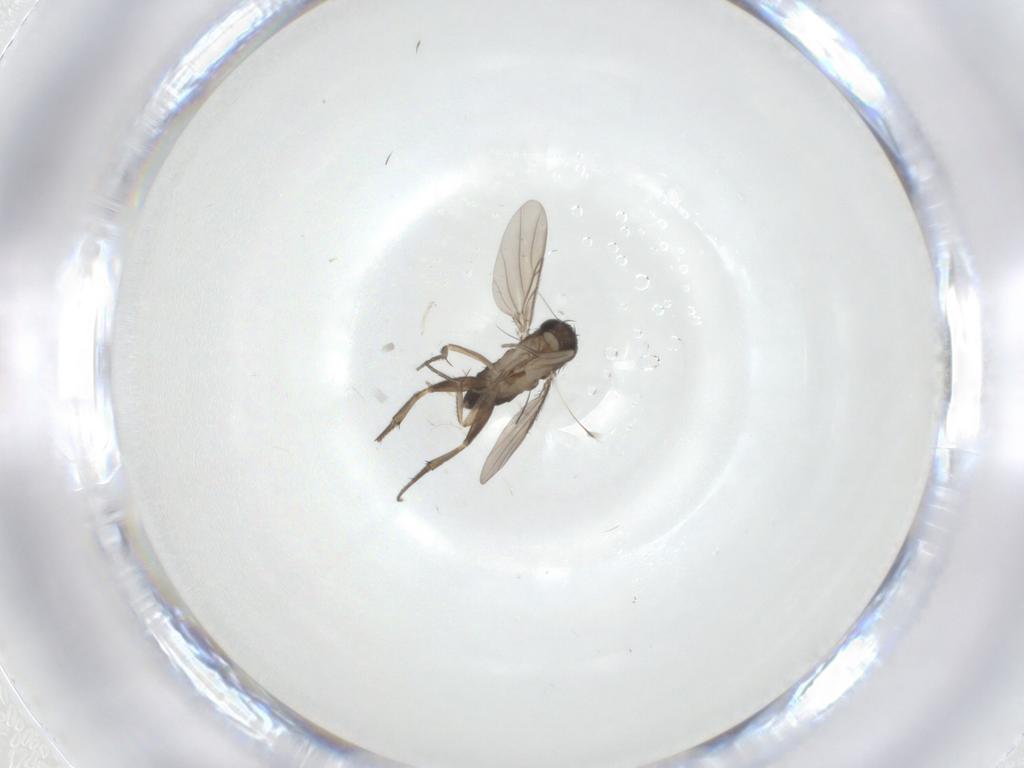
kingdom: Animalia
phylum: Arthropoda
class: Insecta
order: Diptera
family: Phoridae
